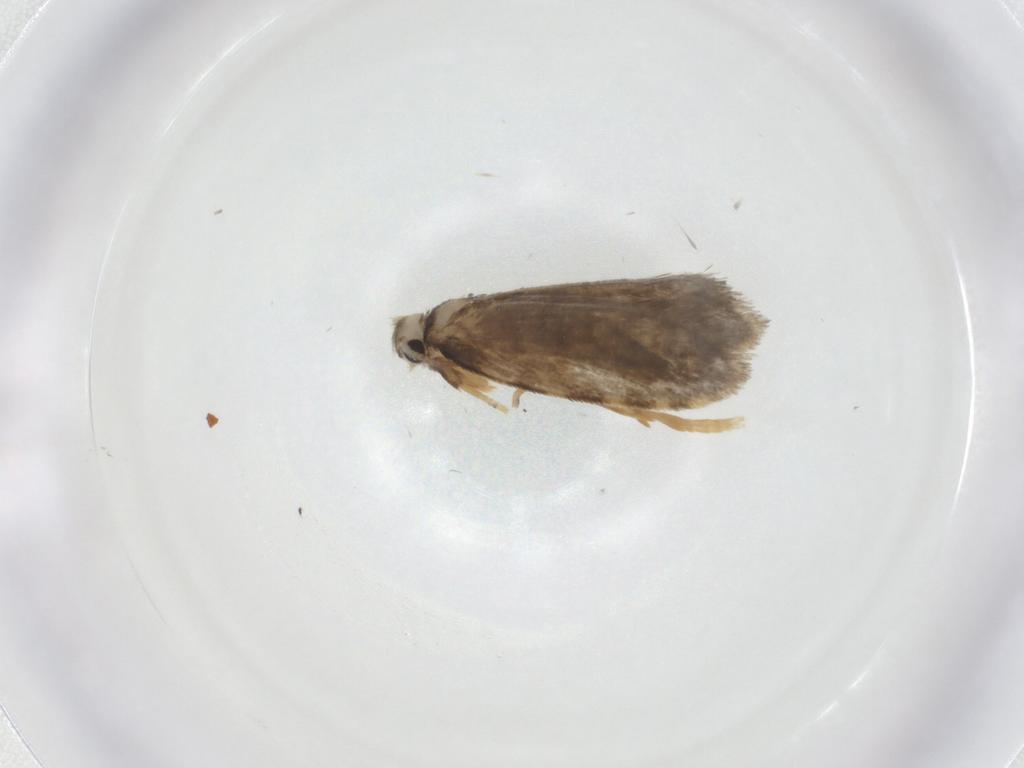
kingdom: Animalia
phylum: Arthropoda
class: Insecta
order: Lepidoptera
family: Psychidae
